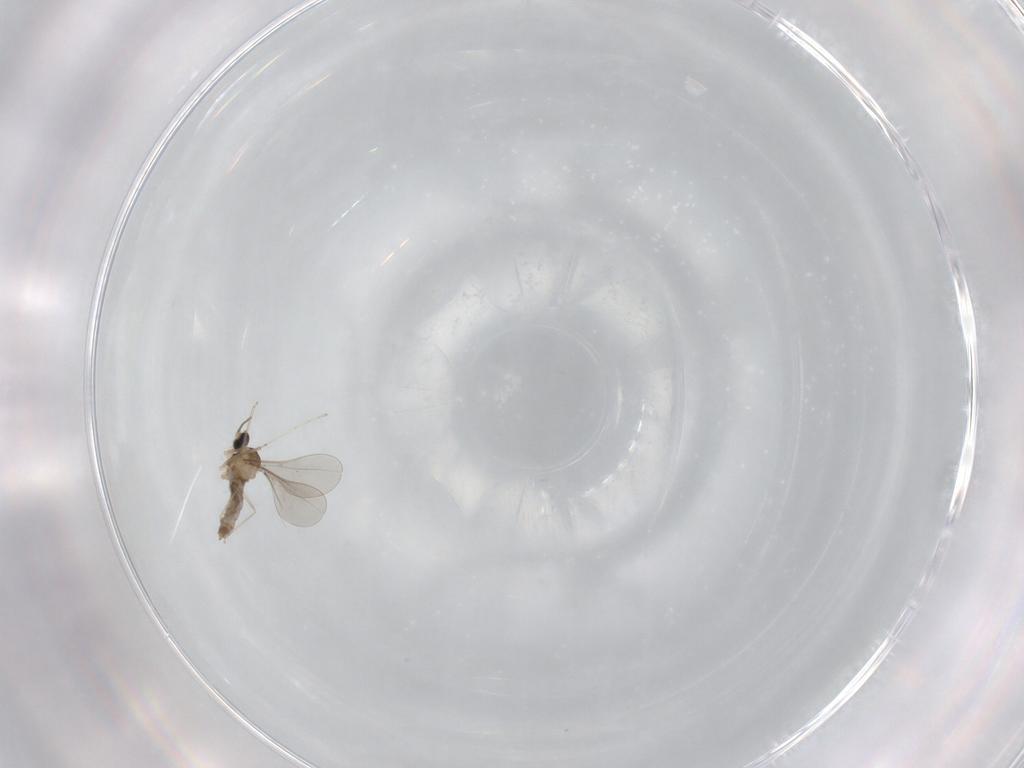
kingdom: Animalia
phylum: Arthropoda
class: Insecta
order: Diptera
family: Cecidomyiidae
